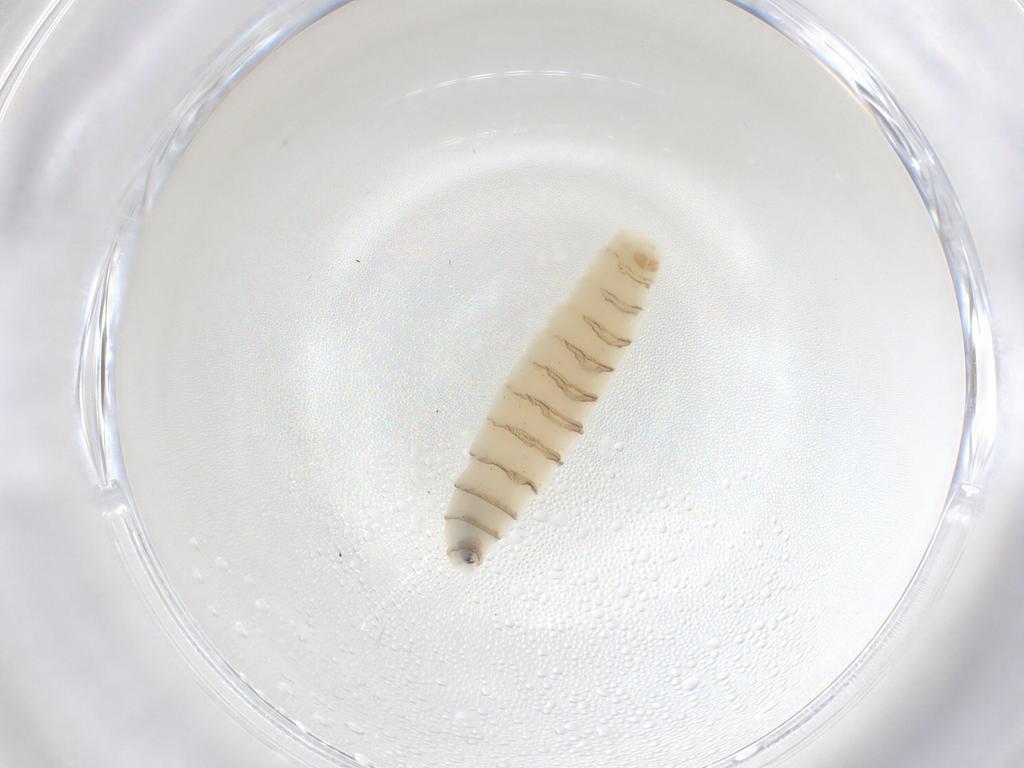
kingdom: Animalia
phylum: Arthropoda
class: Insecta
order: Diptera
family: Sarcophagidae
